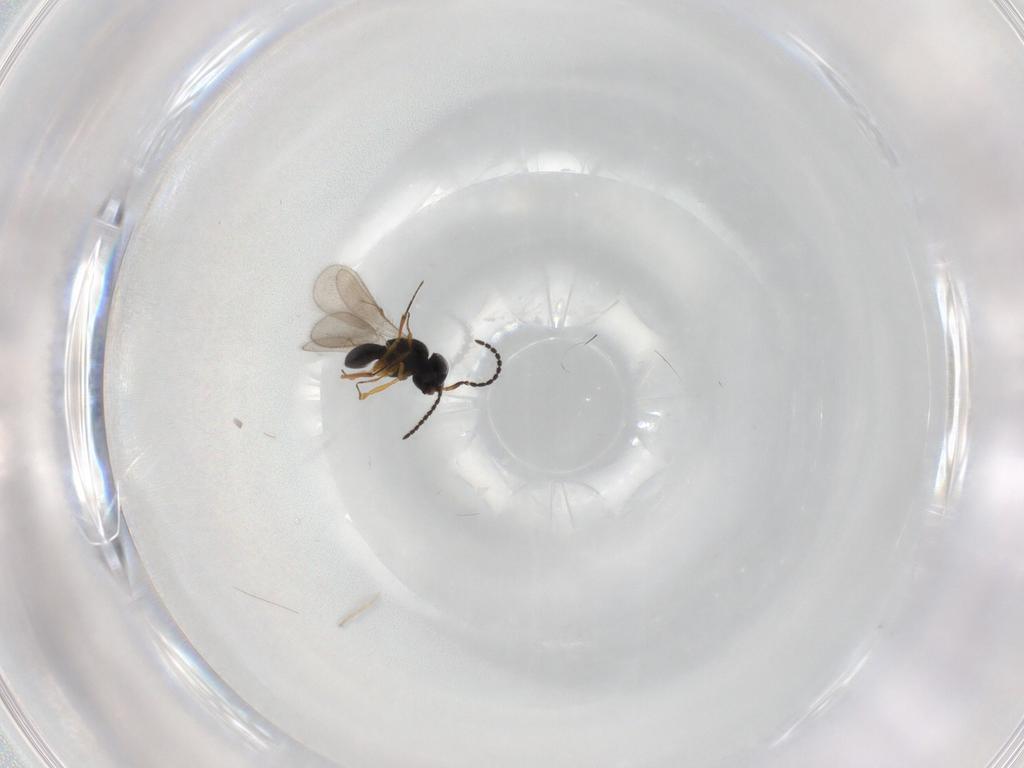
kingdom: Animalia
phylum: Arthropoda
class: Insecta
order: Hymenoptera
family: Scelionidae
